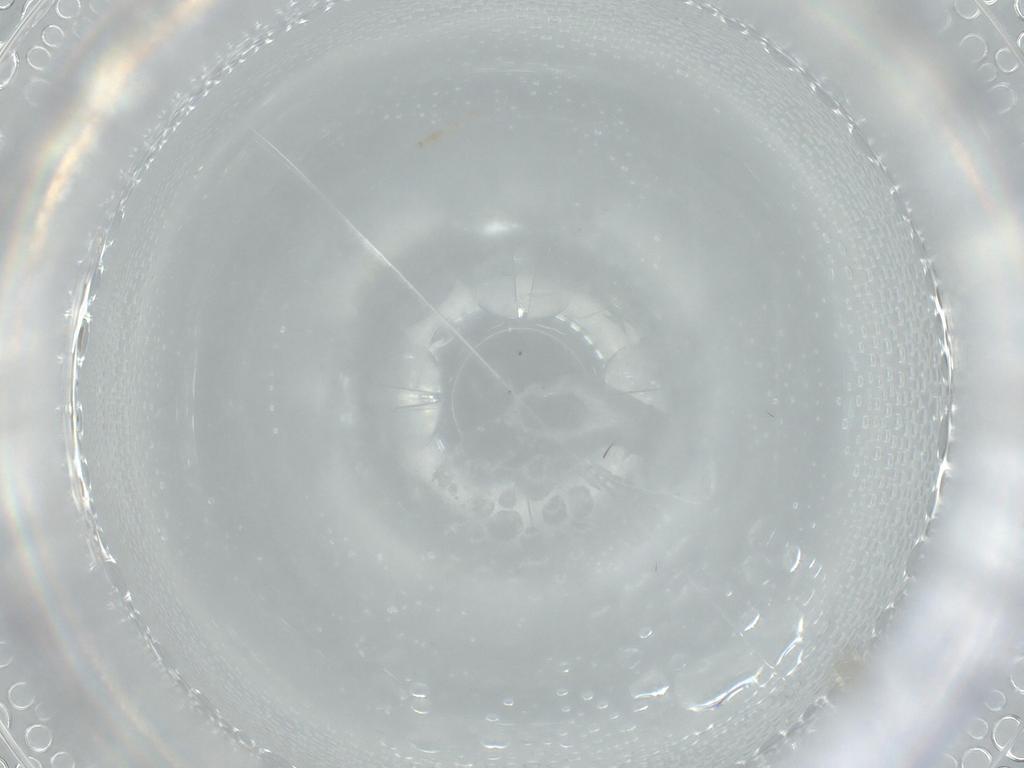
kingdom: Animalia
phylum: Arthropoda
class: Insecta
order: Diptera
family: Cecidomyiidae
